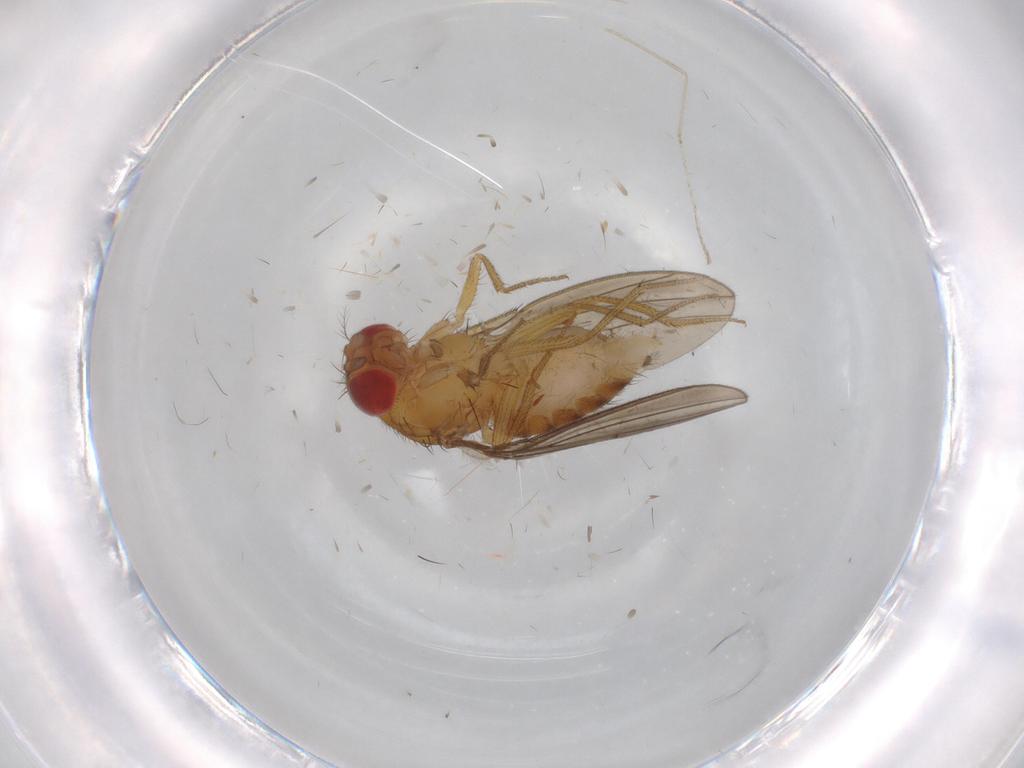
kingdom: Animalia
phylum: Arthropoda
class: Insecta
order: Diptera
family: Drosophilidae
